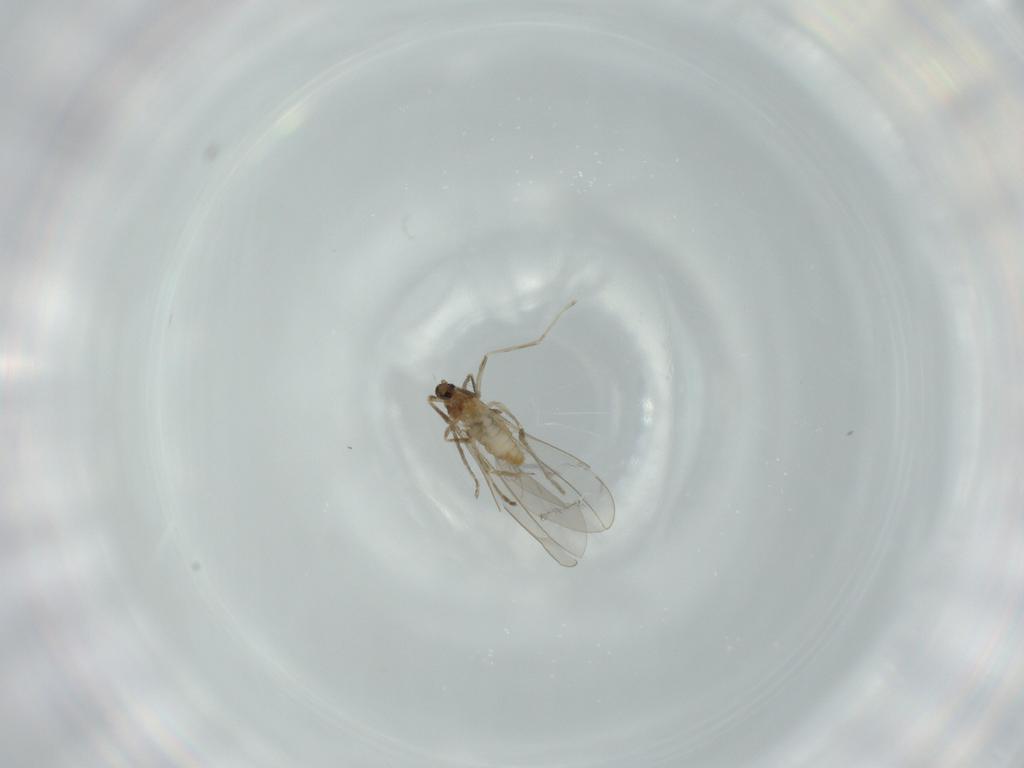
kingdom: Animalia
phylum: Arthropoda
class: Insecta
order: Diptera
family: Cecidomyiidae
